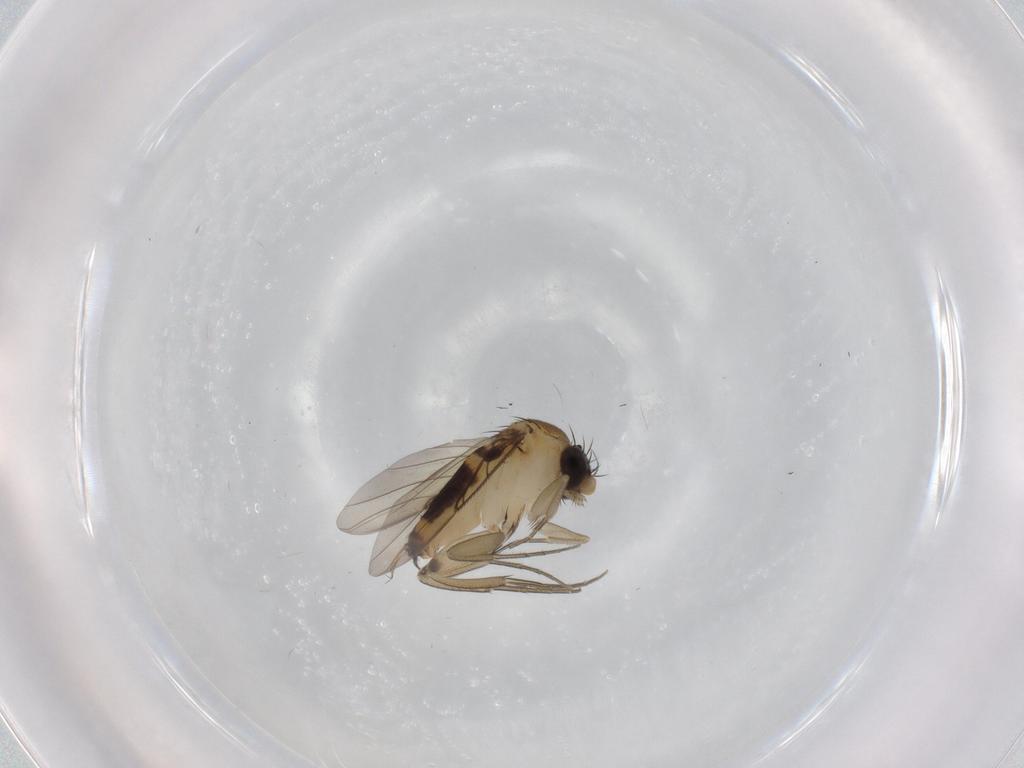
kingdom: Animalia
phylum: Arthropoda
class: Insecta
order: Diptera
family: Phoridae
